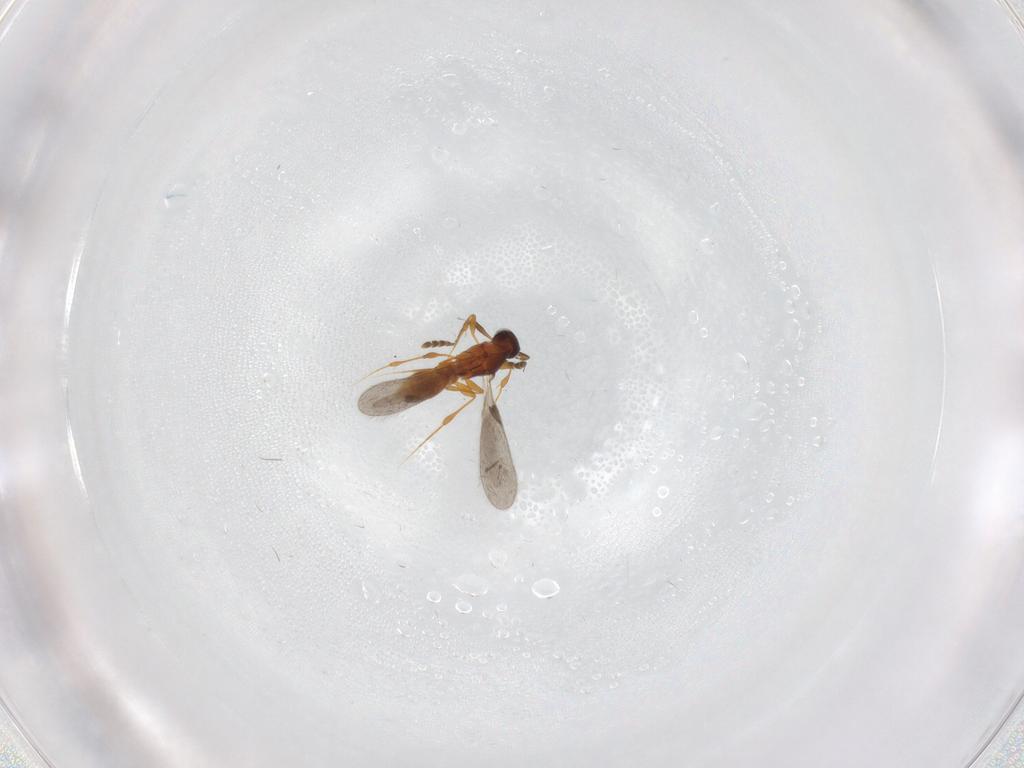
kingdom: Animalia
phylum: Arthropoda
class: Insecta
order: Hymenoptera
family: Platygastridae
